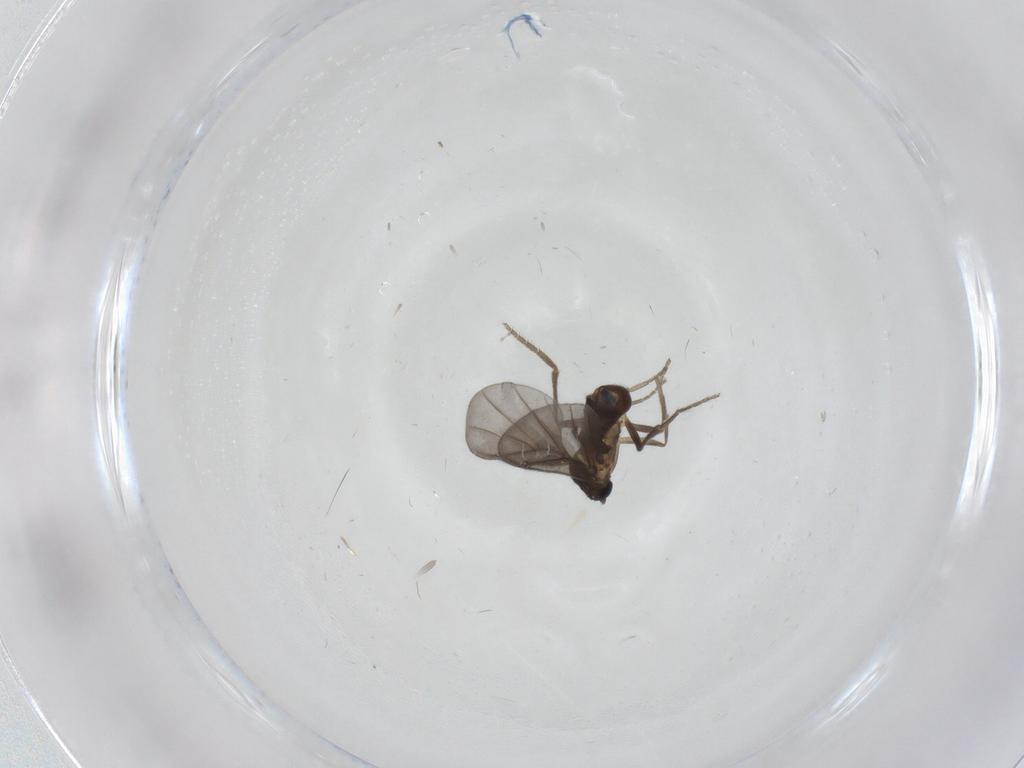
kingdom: Animalia
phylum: Arthropoda
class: Insecta
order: Diptera
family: Cecidomyiidae
